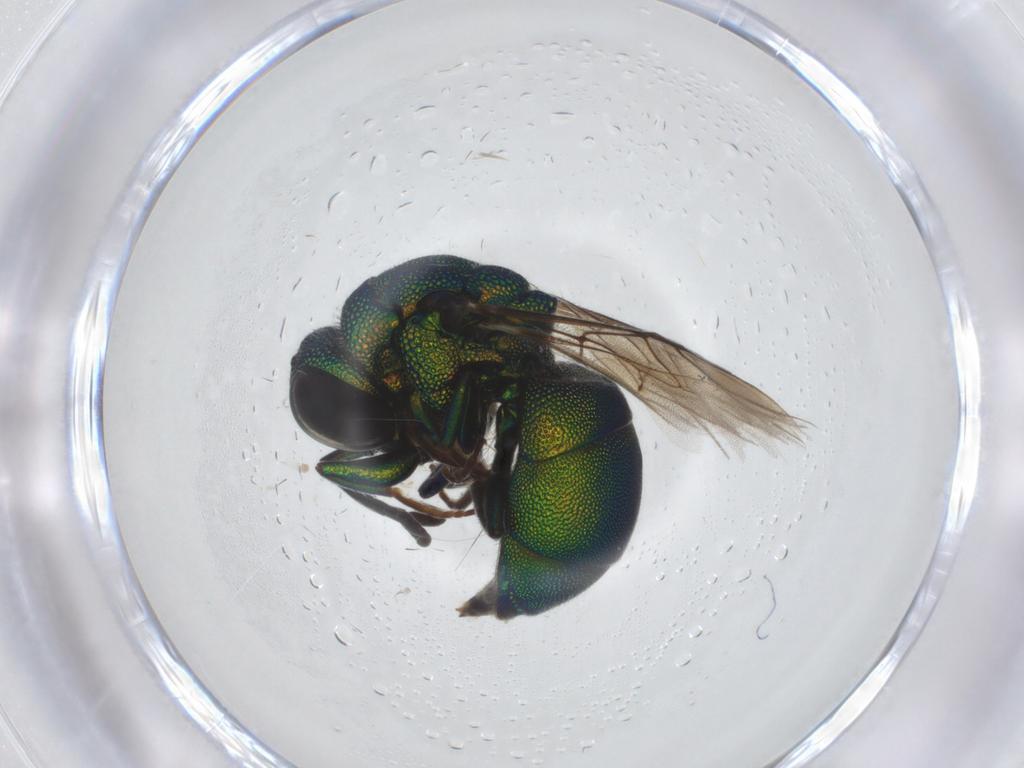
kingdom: Animalia
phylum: Arthropoda
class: Insecta
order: Hymenoptera
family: Chrysididae
